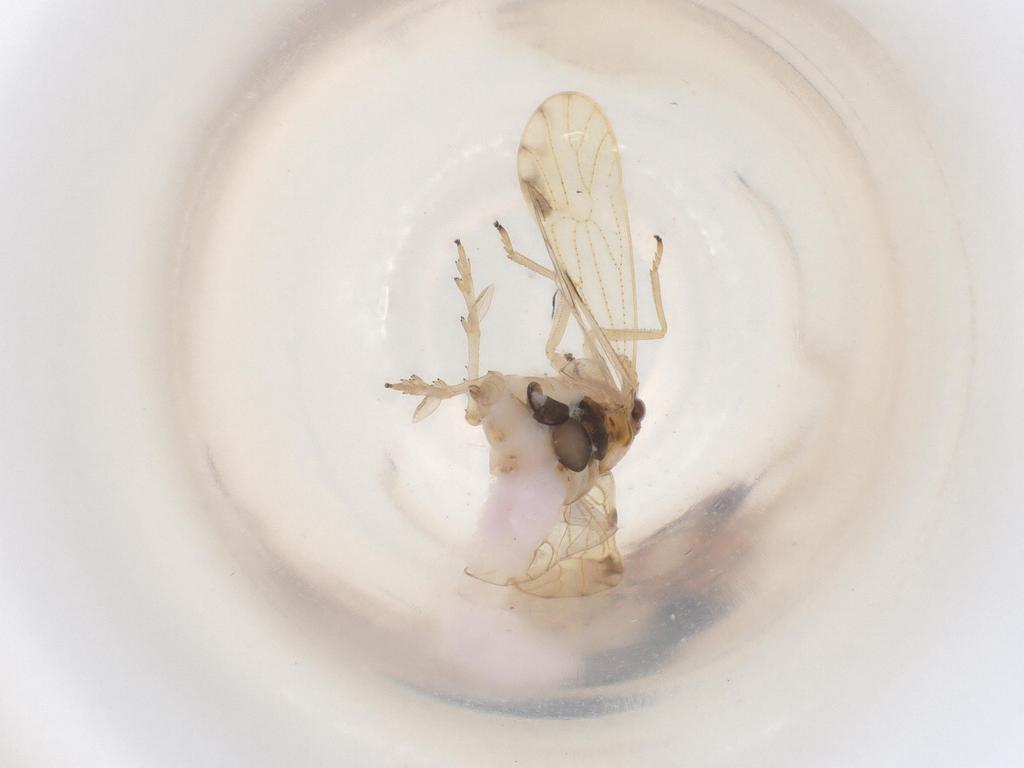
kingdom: Animalia
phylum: Arthropoda
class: Insecta
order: Hemiptera
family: Delphacidae
